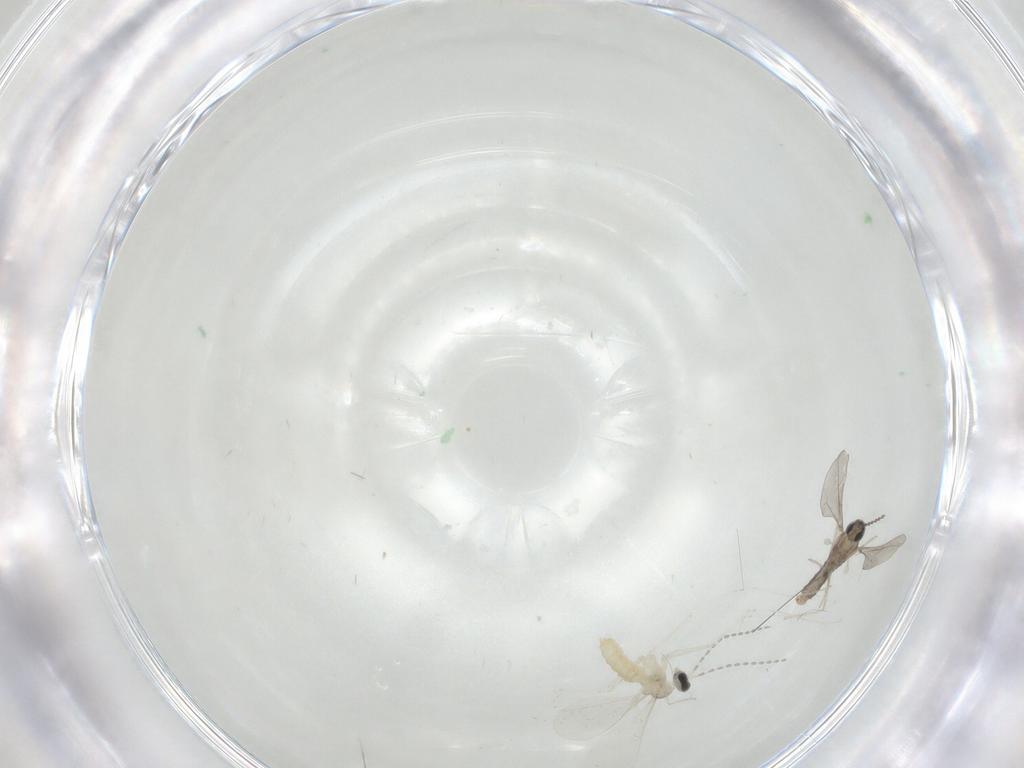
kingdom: Animalia
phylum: Arthropoda
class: Insecta
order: Diptera
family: Cecidomyiidae
